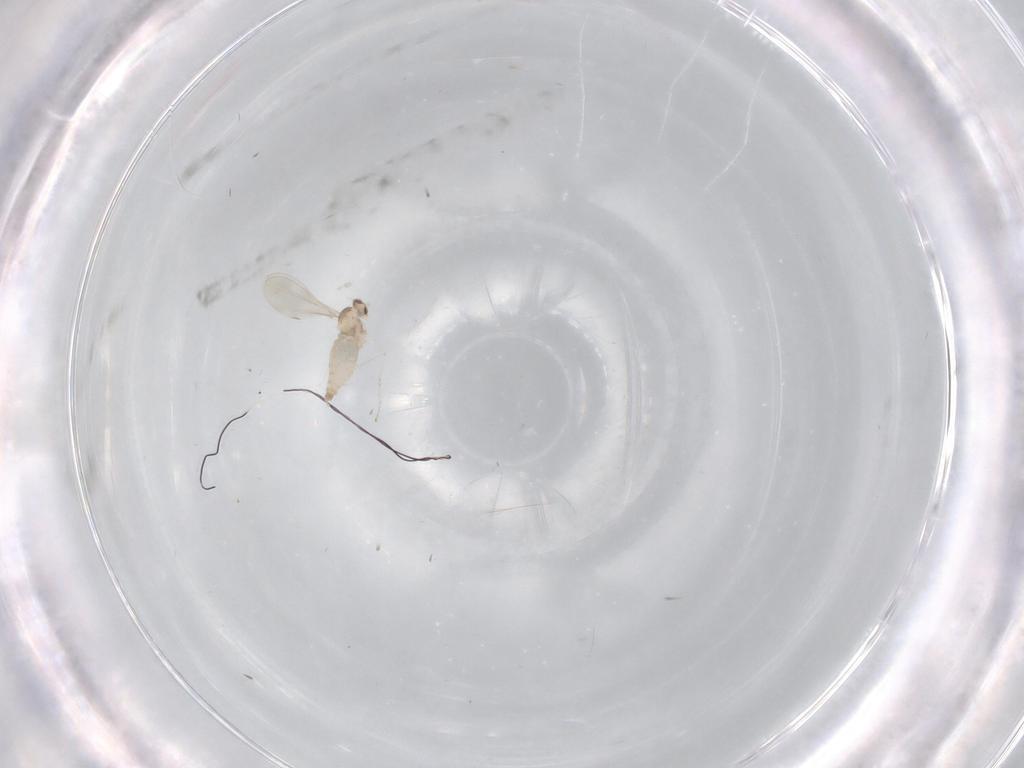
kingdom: Animalia
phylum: Arthropoda
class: Insecta
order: Diptera
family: Cecidomyiidae
